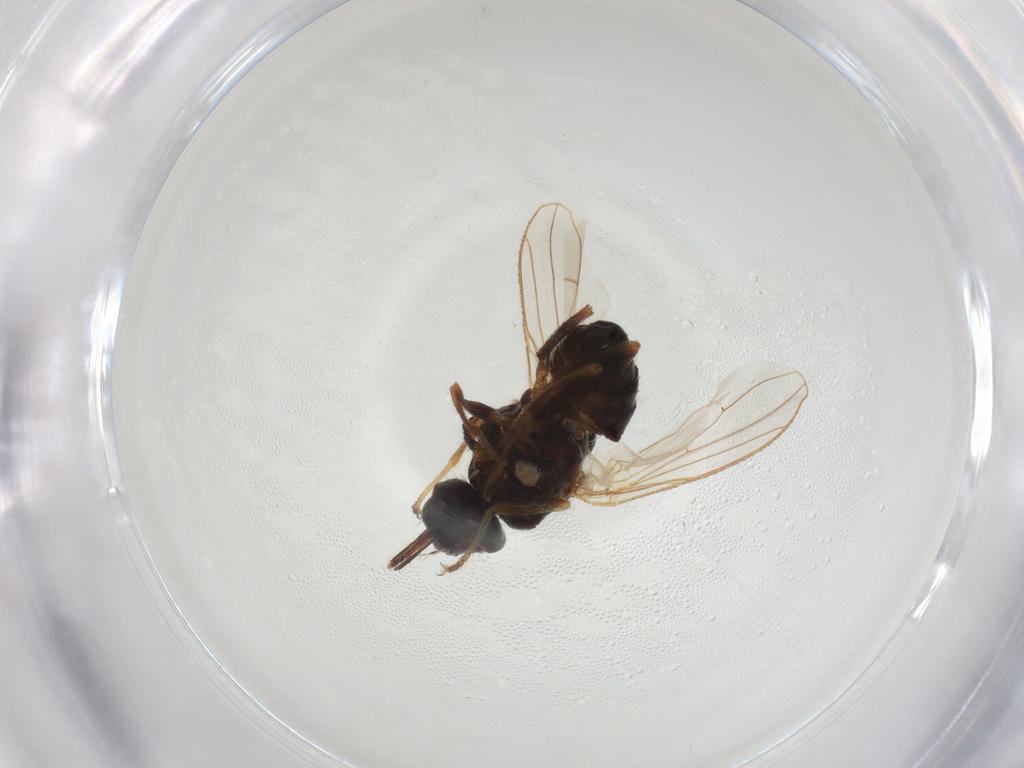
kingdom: Animalia
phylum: Arthropoda
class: Insecta
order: Diptera
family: Muscidae
